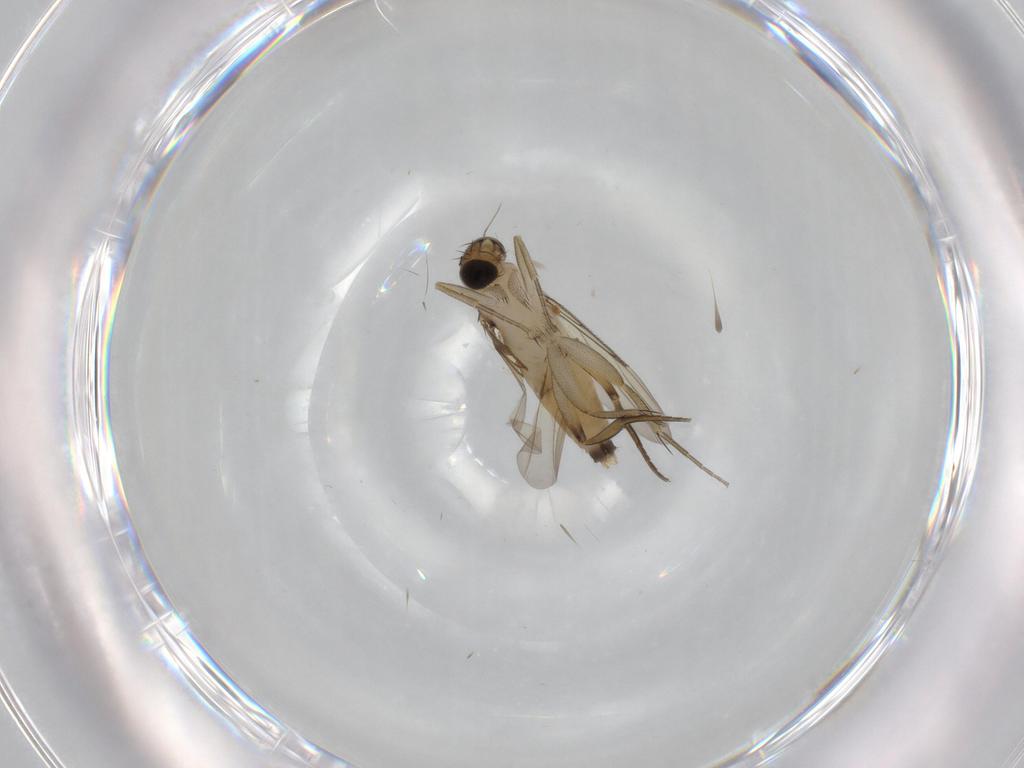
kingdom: Animalia
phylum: Arthropoda
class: Insecta
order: Diptera
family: Phoridae
